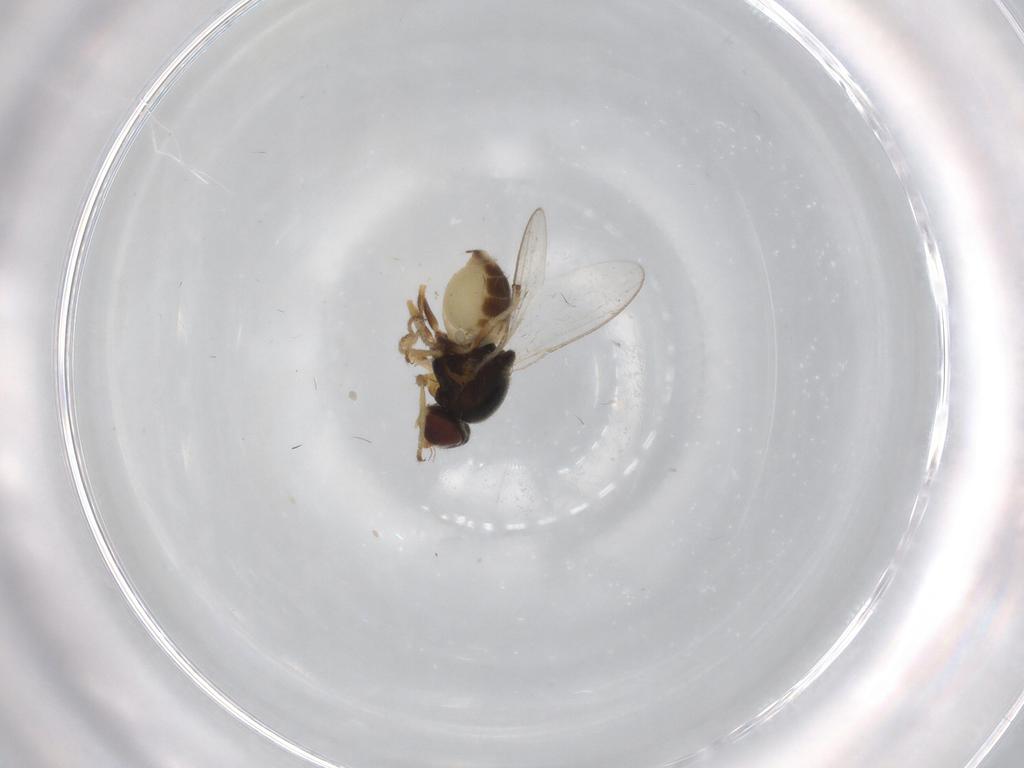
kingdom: Animalia
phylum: Arthropoda
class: Insecta
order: Diptera
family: Chloropidae
